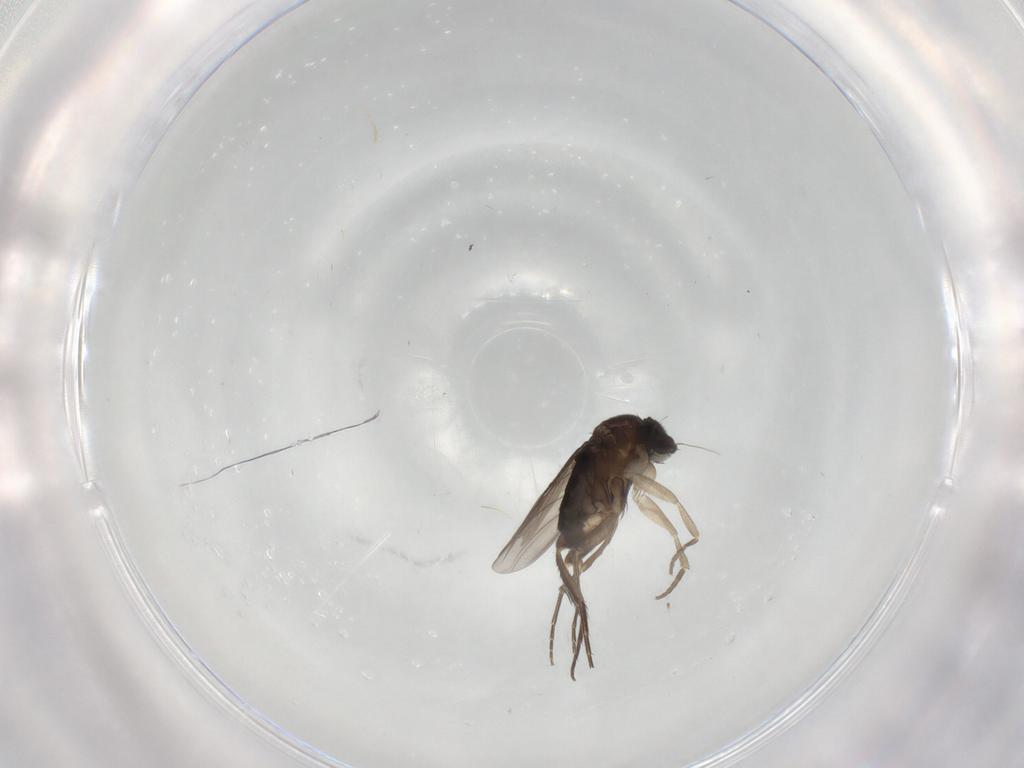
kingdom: Animalia
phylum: Arthropoda
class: Insecta
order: Diptera
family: Phoridae
